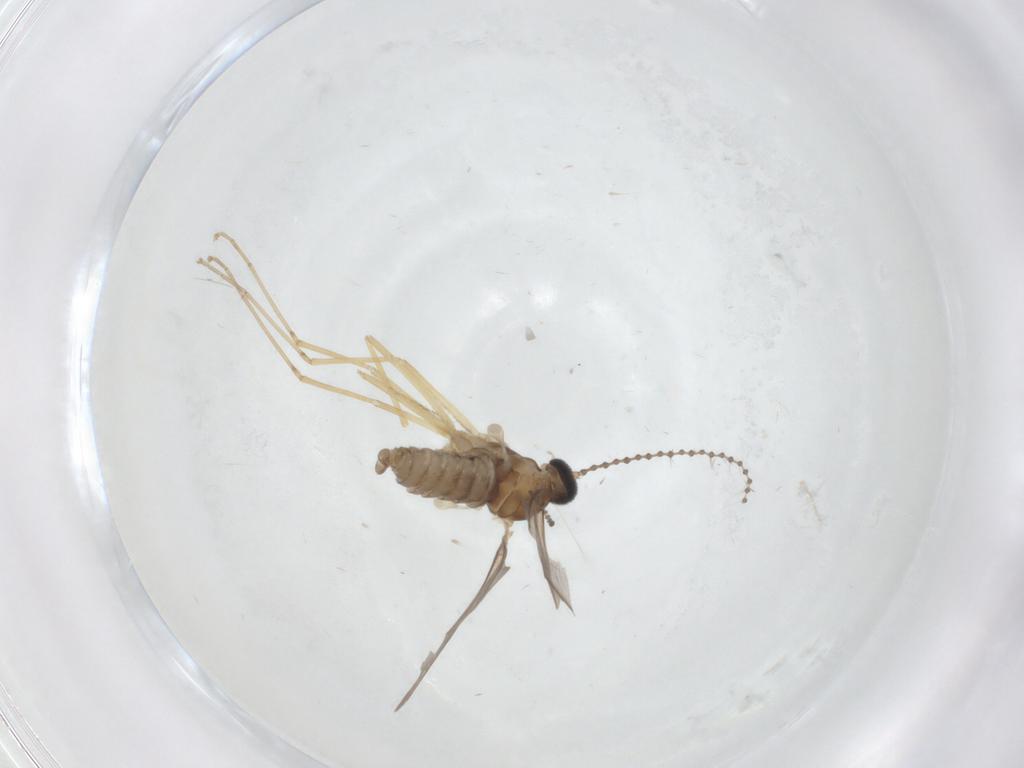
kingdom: Animalia
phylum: Arthropoda
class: Insecta
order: Diptera
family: Cecidomyiidae
